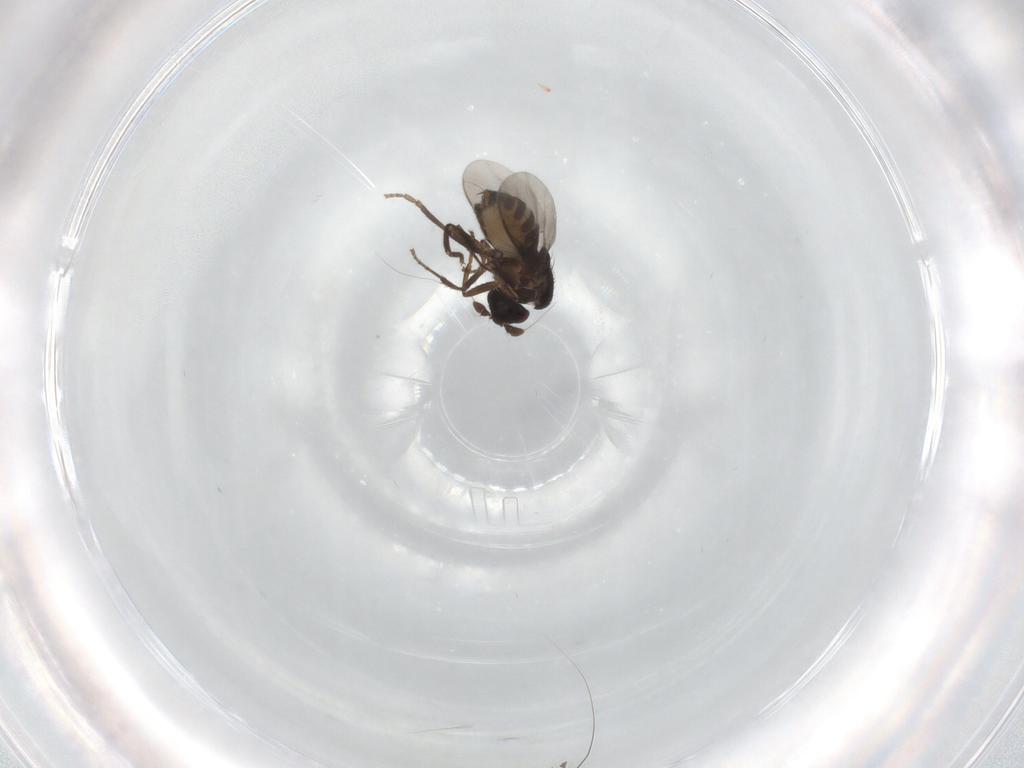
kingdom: Animalia
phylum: Arthropoda
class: Insecta
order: Diptera
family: Sphaeroceridae
